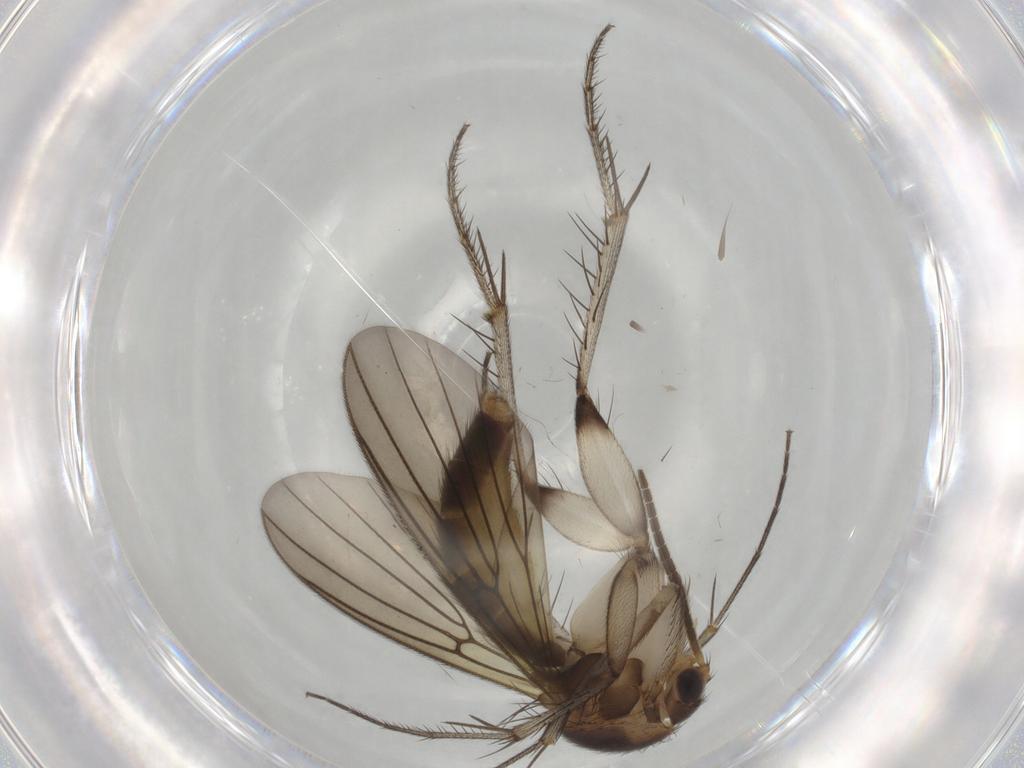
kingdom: Animalia
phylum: Arthropoda
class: Insecta
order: Diptera
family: Mycetophilidae
